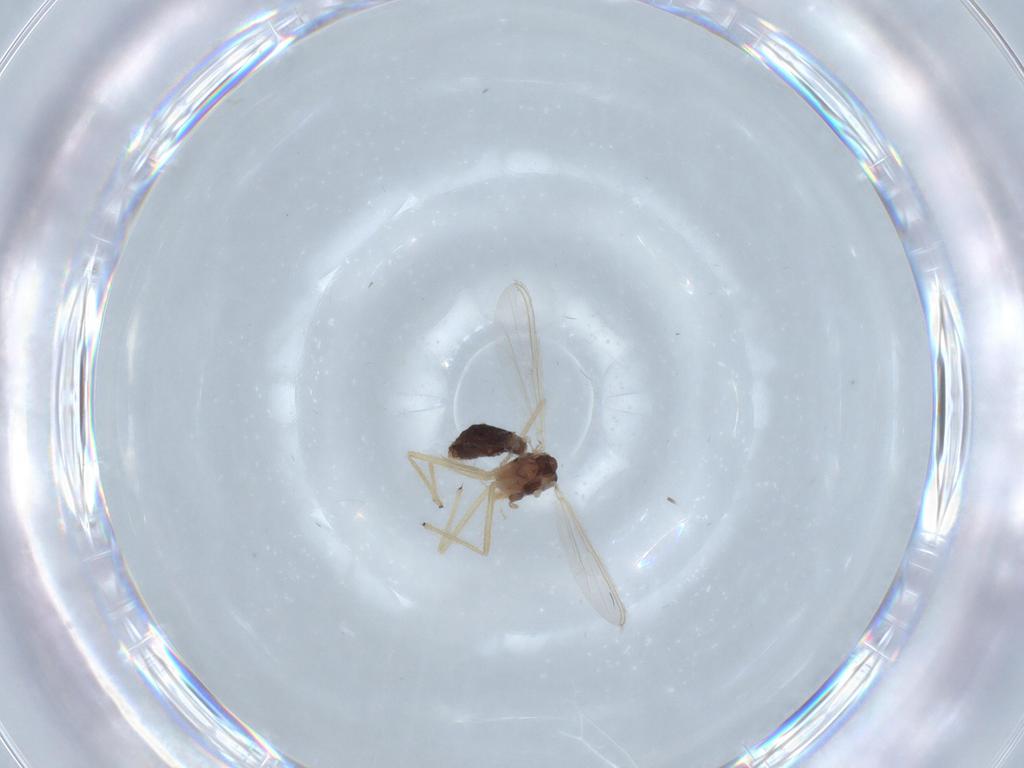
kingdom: Animalia
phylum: Arthropoda
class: Insecta
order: Diptera
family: Chironomidae
